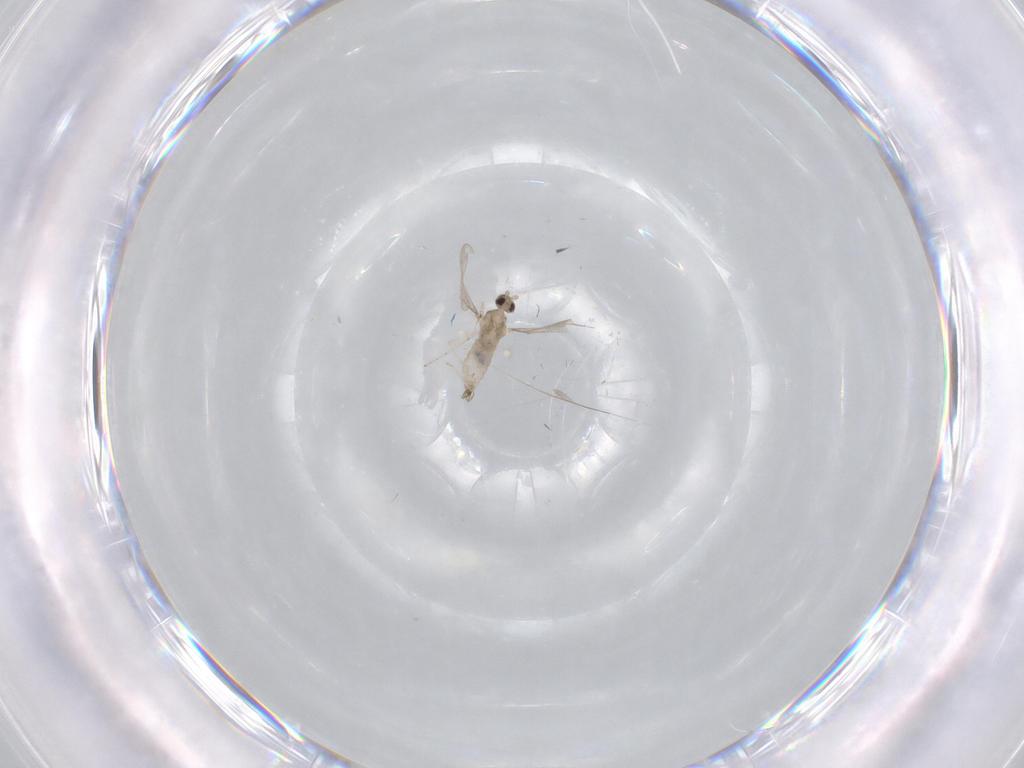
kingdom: Animalia
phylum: Arthropoda
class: Insecta
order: Diptera
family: Cecidomyiidae
